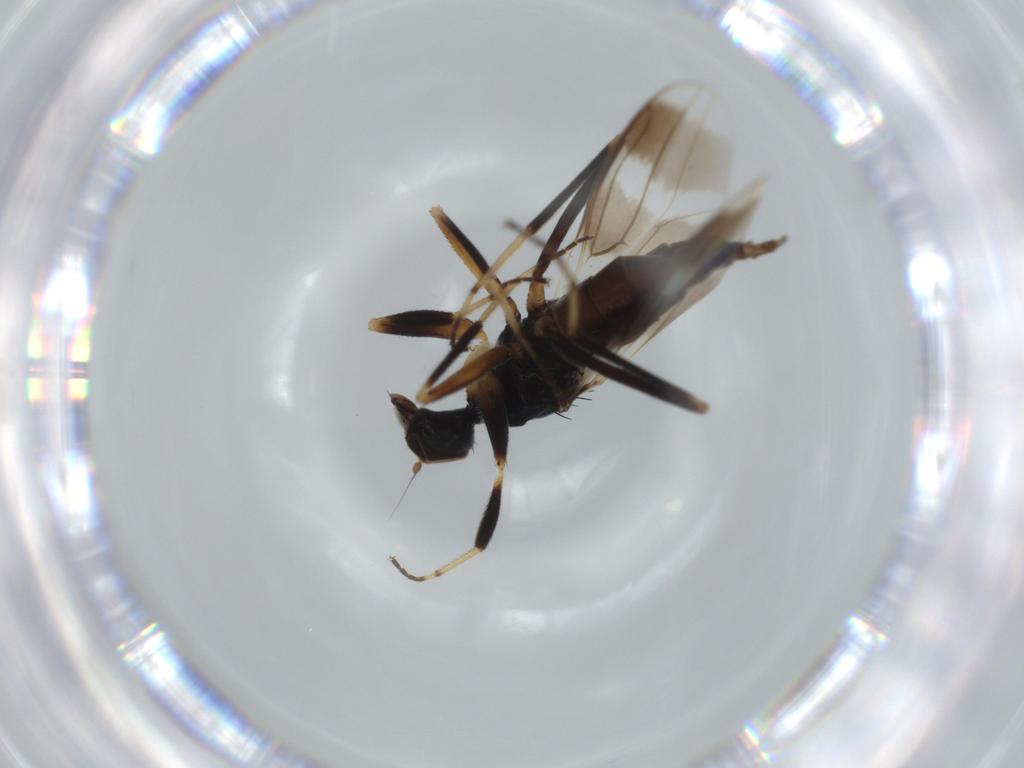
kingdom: Animalia
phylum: Arthropoda
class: Insecta
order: Diptera
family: Hybotidae
